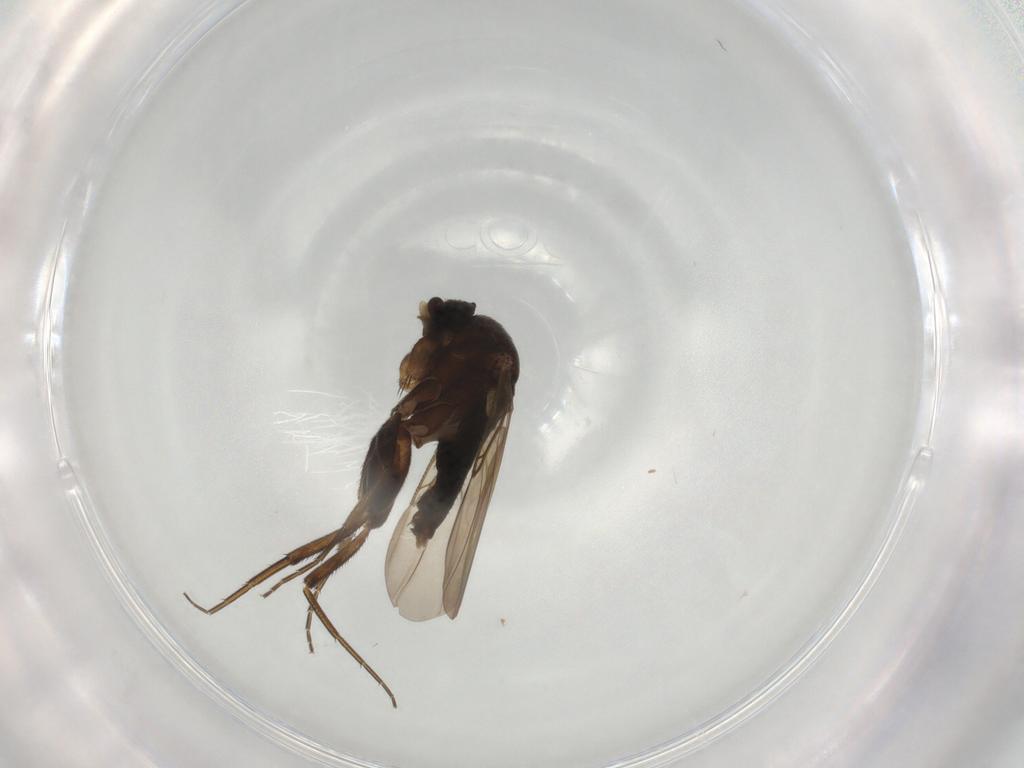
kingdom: Animalia
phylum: Arthropoda
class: Insecta
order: Diptera
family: Phoridae
